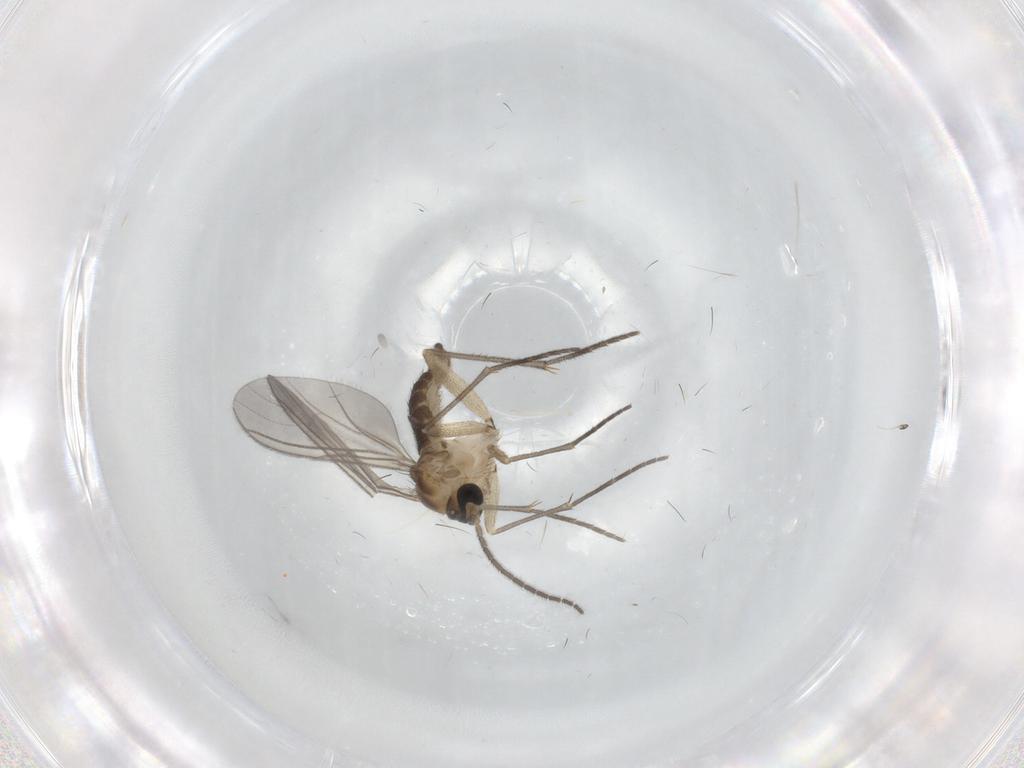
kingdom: Animalia
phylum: Arthropoda
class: Insecta
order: Diptera
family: Sciaridae
